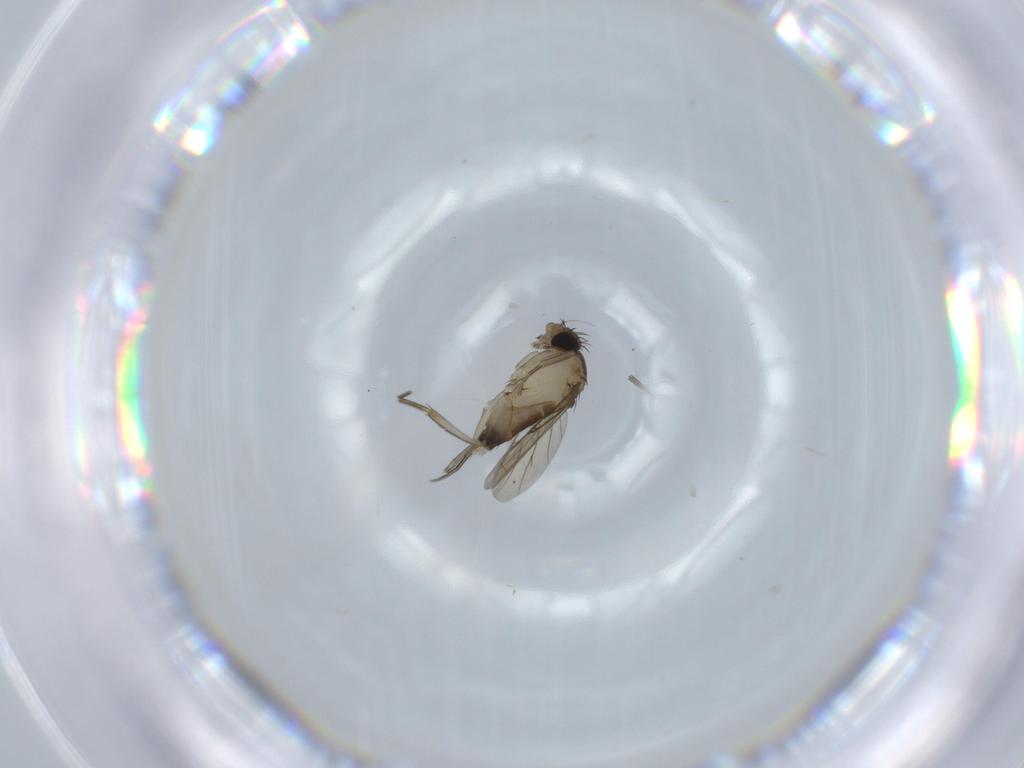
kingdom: Animalia
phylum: Arthropoda
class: Insecta
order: Diptera
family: Phoridae
